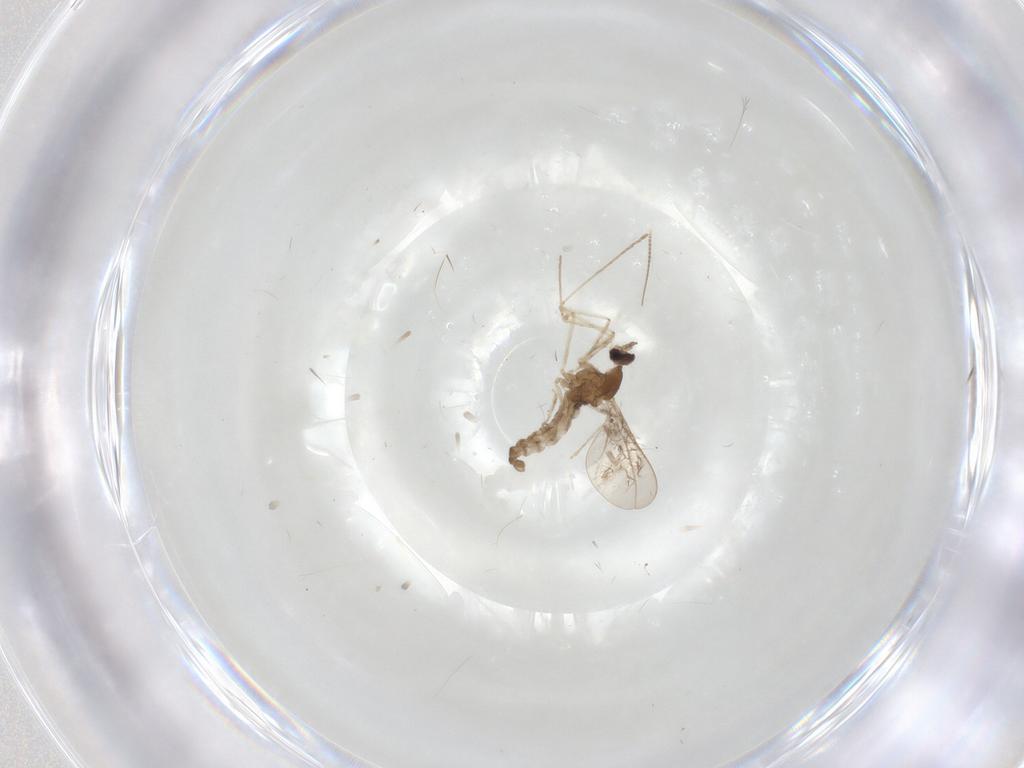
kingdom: Animalia
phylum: Arthropoda
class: Insecta
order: Diptera
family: Cecidomyiidae
